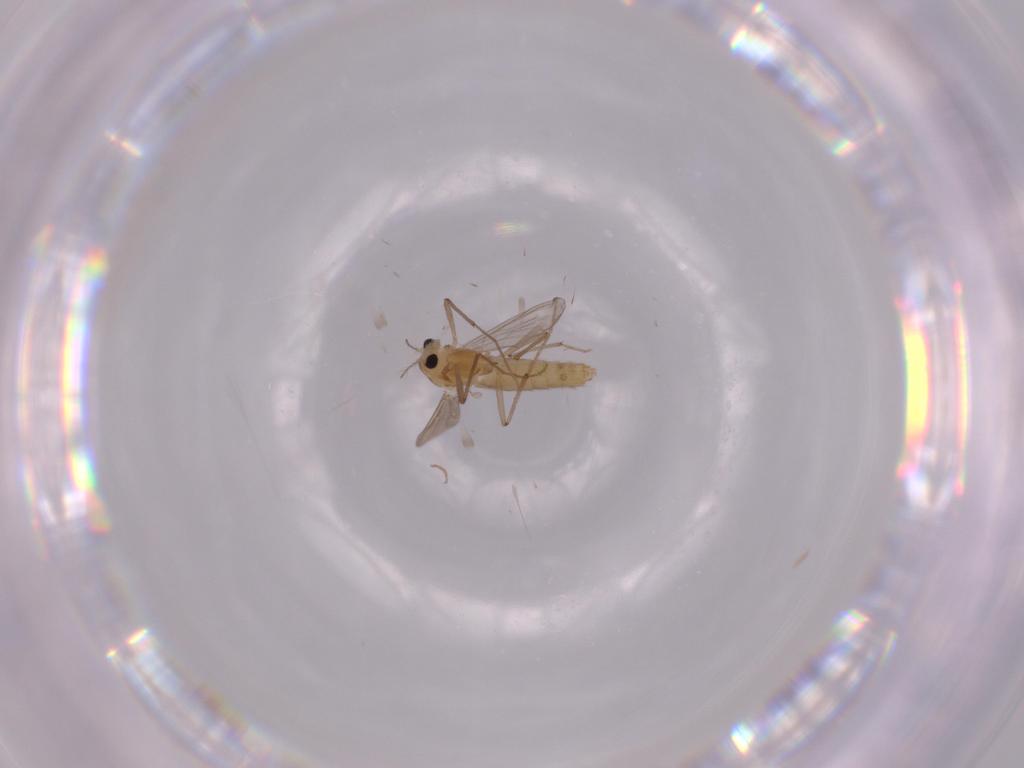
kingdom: Animalia
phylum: Arthropoda
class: Insecta
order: Diptera
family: Chironomidae
